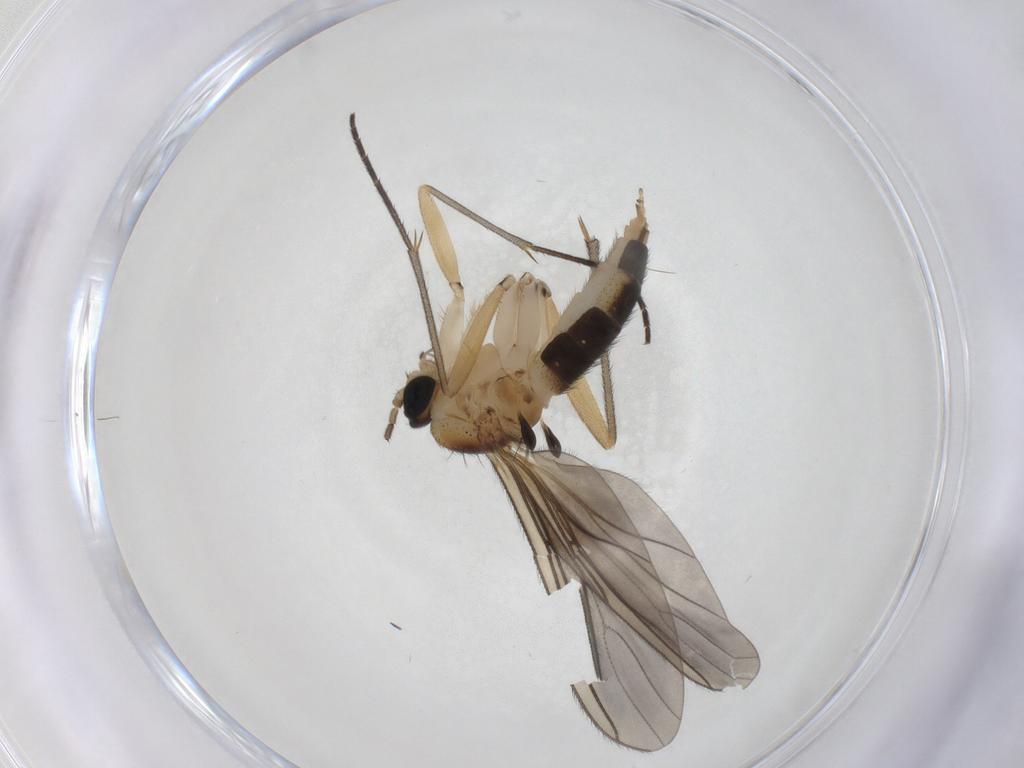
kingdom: Animalia
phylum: Arthropoda
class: Insecta
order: Diptera
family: Sciaridae
